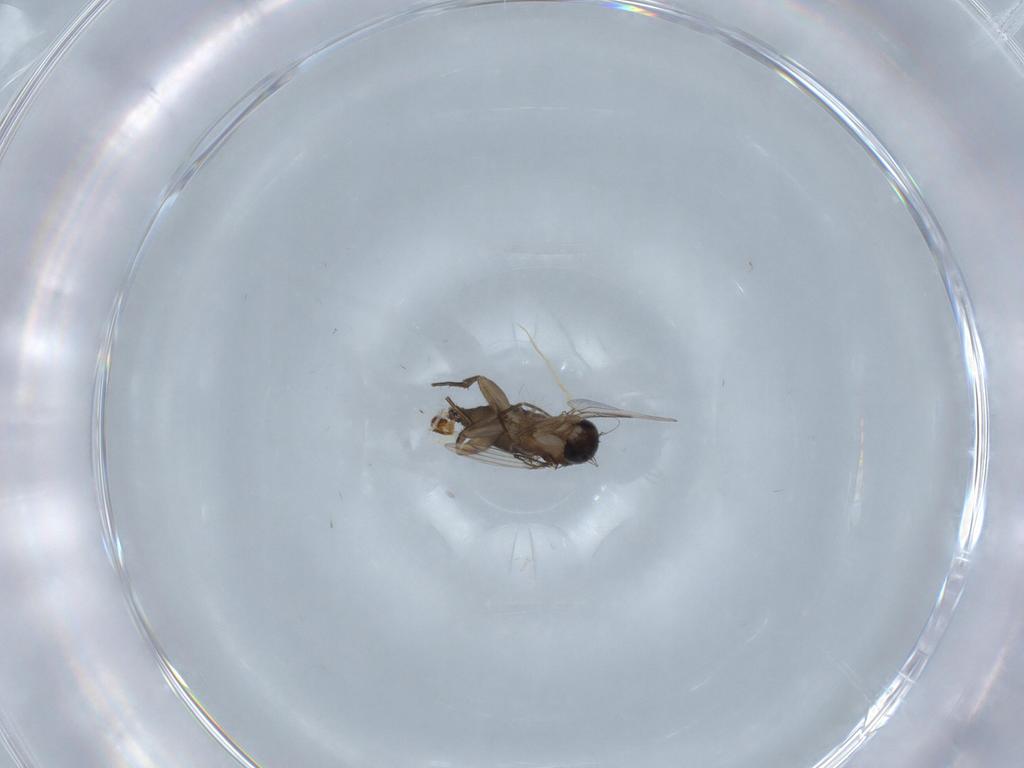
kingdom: Animalia
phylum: Arthropoda
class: Insecta
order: Diptera
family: Phoridae
